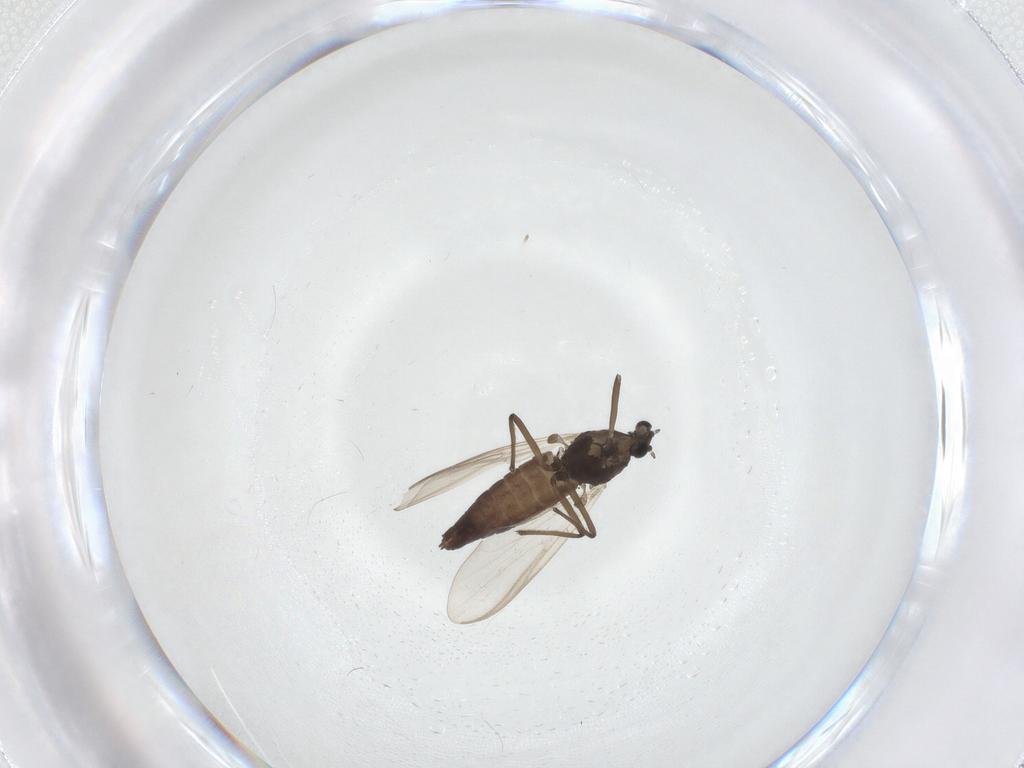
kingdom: Animalia
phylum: Arthropoda
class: Insecta
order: Diptera
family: Chironomidae
